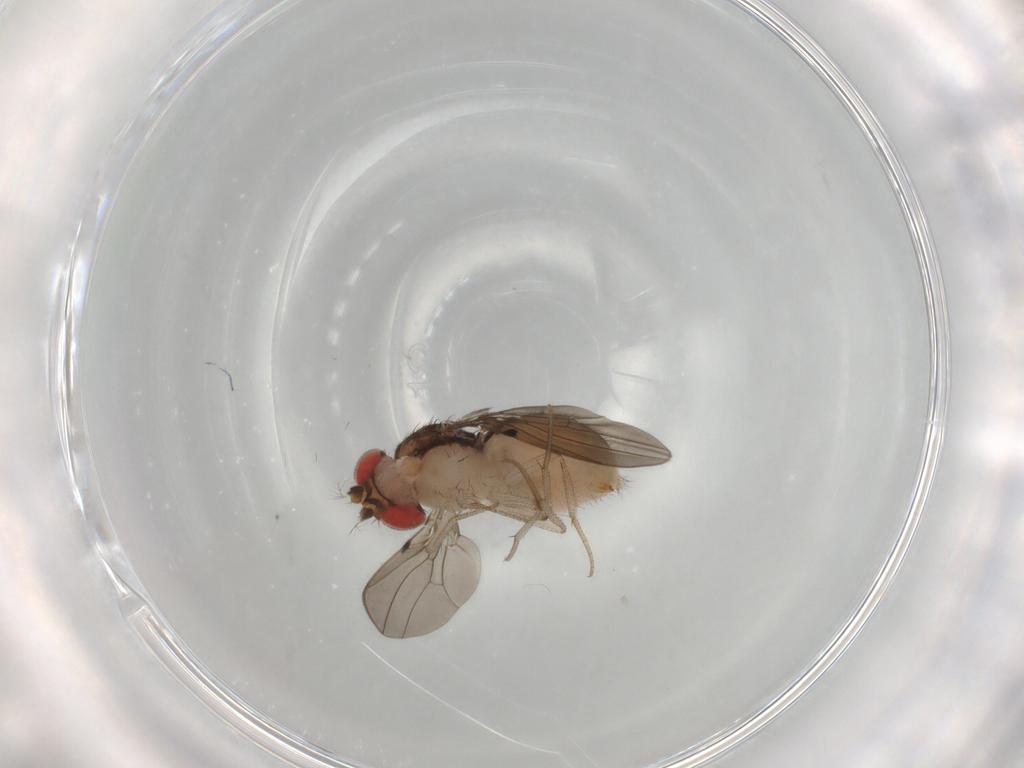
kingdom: Animalia
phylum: Arthropoda
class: Insecta
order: Diptera
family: Drosophilidae
